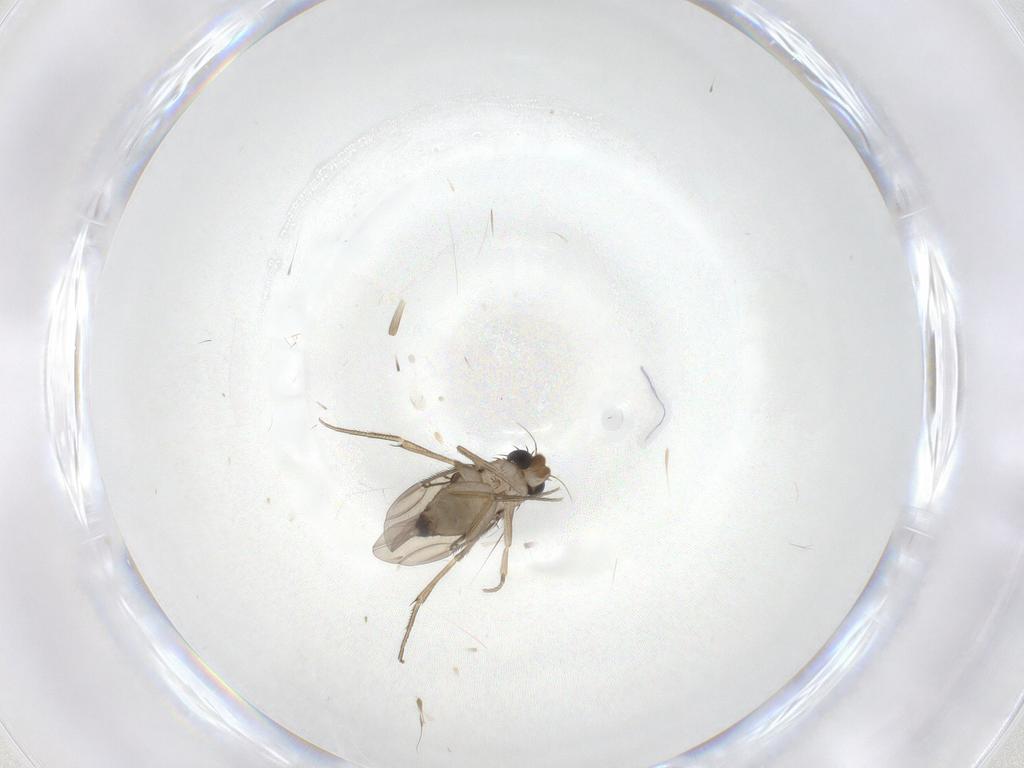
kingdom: Animalia
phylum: Arthropoda
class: Insecta
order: Diptera
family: Phoridae
